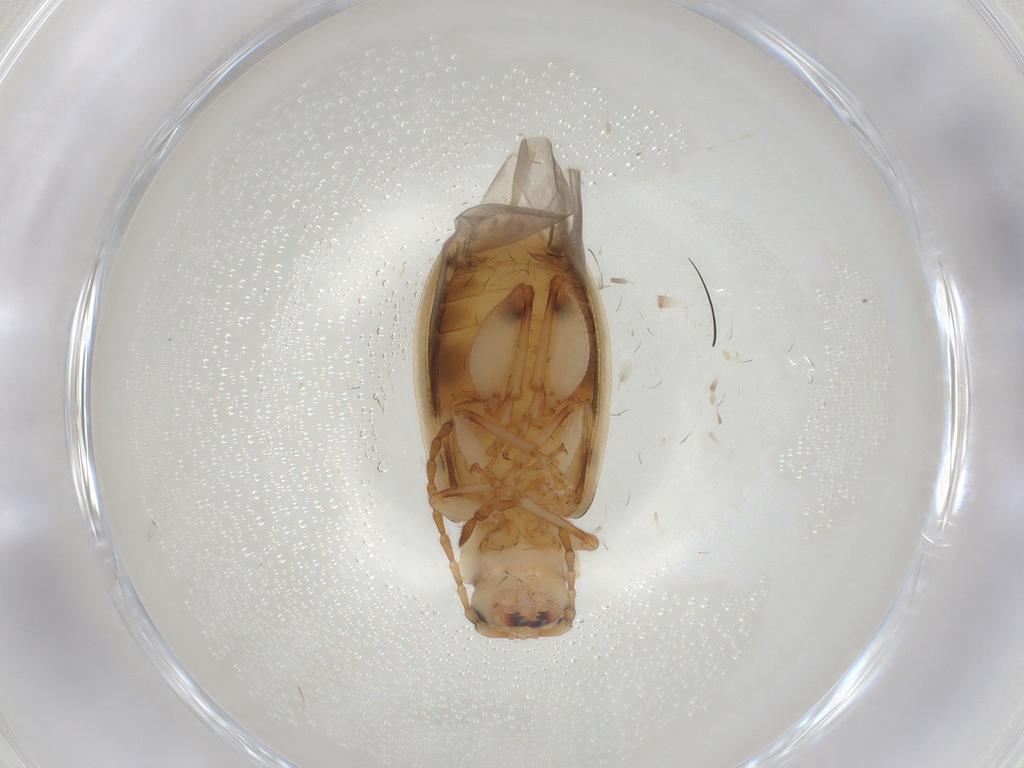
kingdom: Animalia
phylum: Arthropoda
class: Insecta
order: Coleoptera
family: Chrysomelidae
